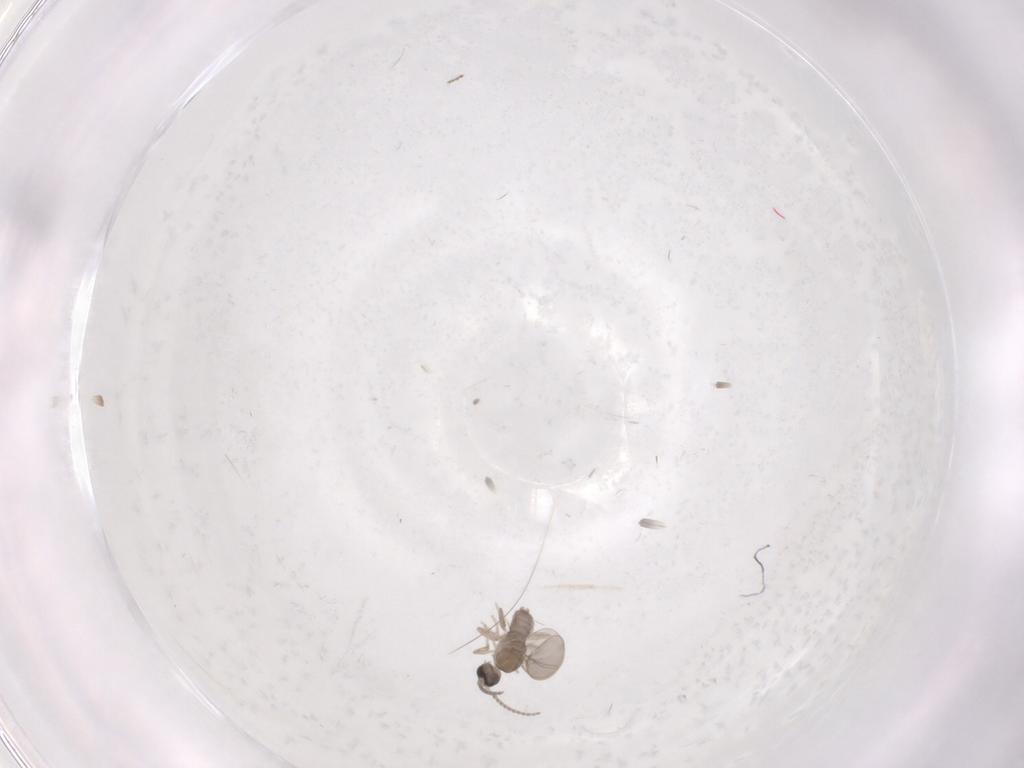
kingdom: Animalia
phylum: Arthropoda
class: Insecta
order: Diptera
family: Cecidomyiidae
